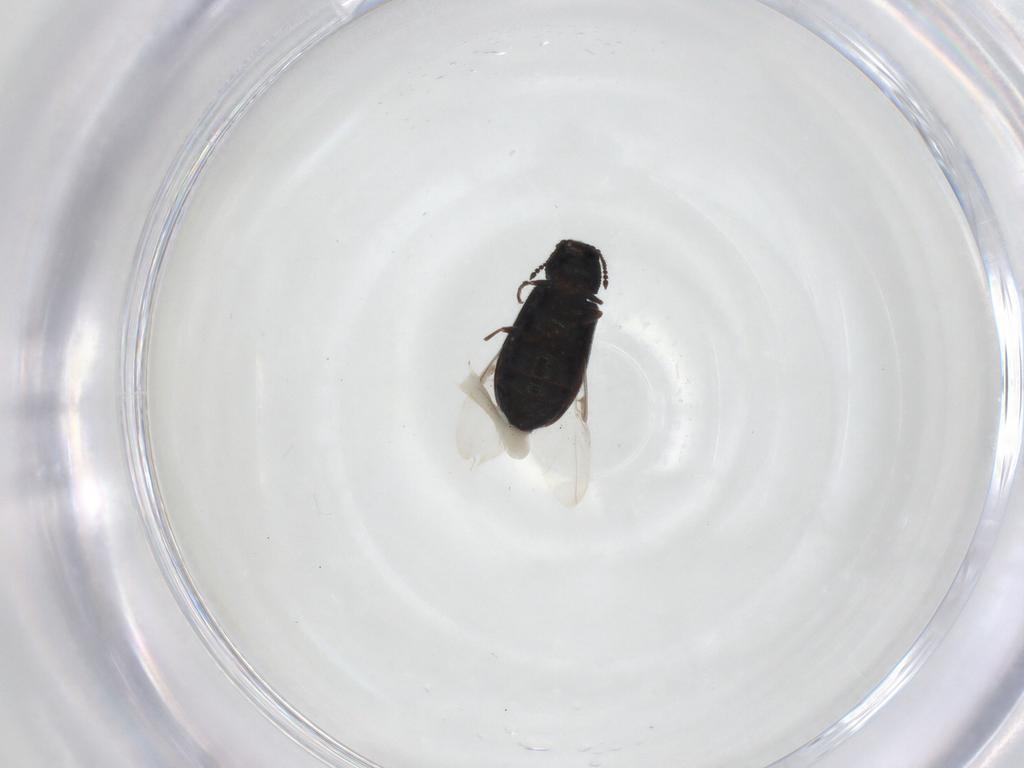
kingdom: Animalia
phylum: Arthropoda
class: Insecta
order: Coleoptera
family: Melyridae
